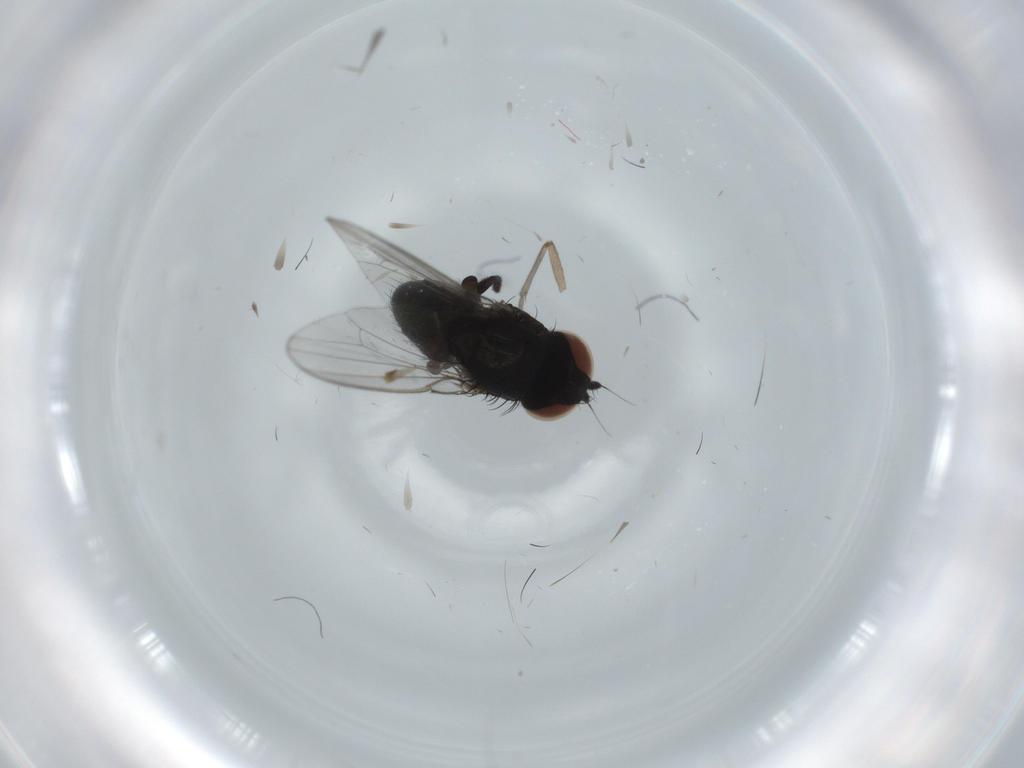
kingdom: Animalia
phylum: Arthropoda
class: Insecta
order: Diptera
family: Milichiidae
